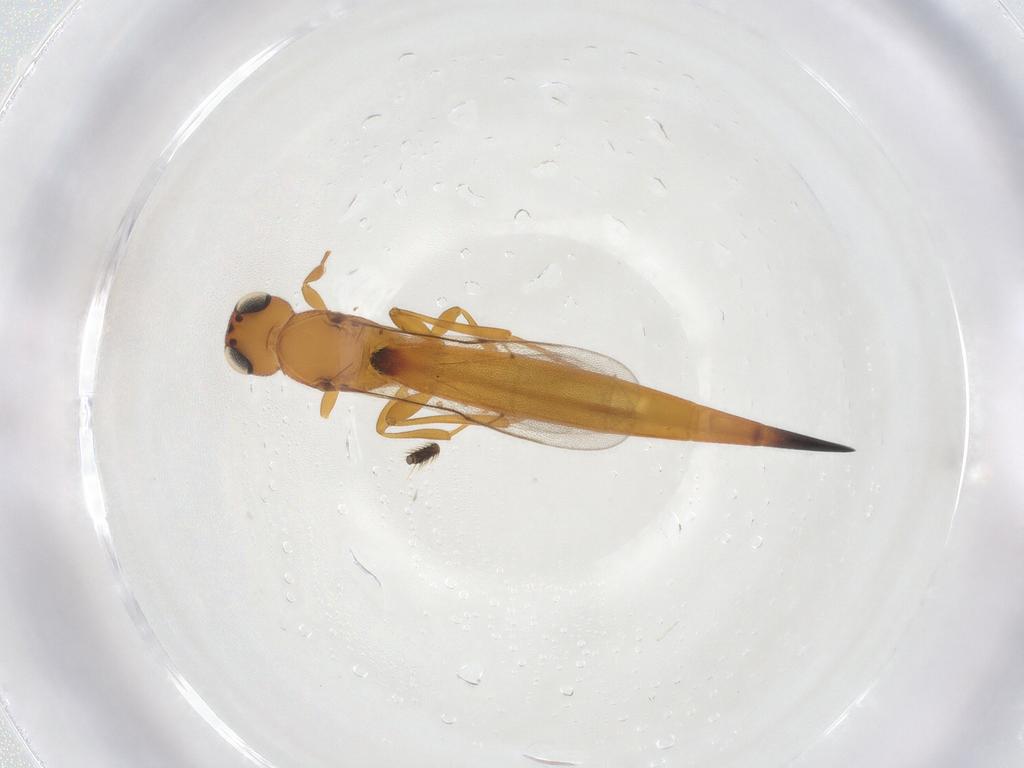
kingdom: Animalia
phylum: Arthropoda
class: Insecta
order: Hymenoptera
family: Scelionidae
